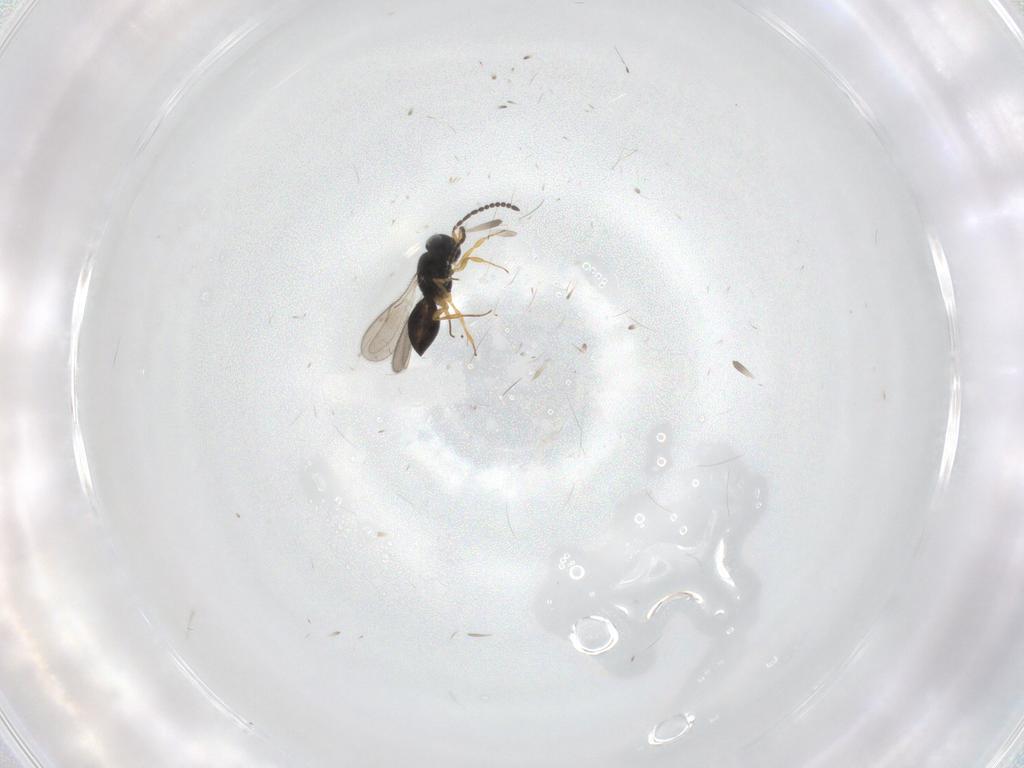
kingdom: Animalia
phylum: Arthropoda
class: Insecta
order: Hymenoptera
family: Scelionidae
